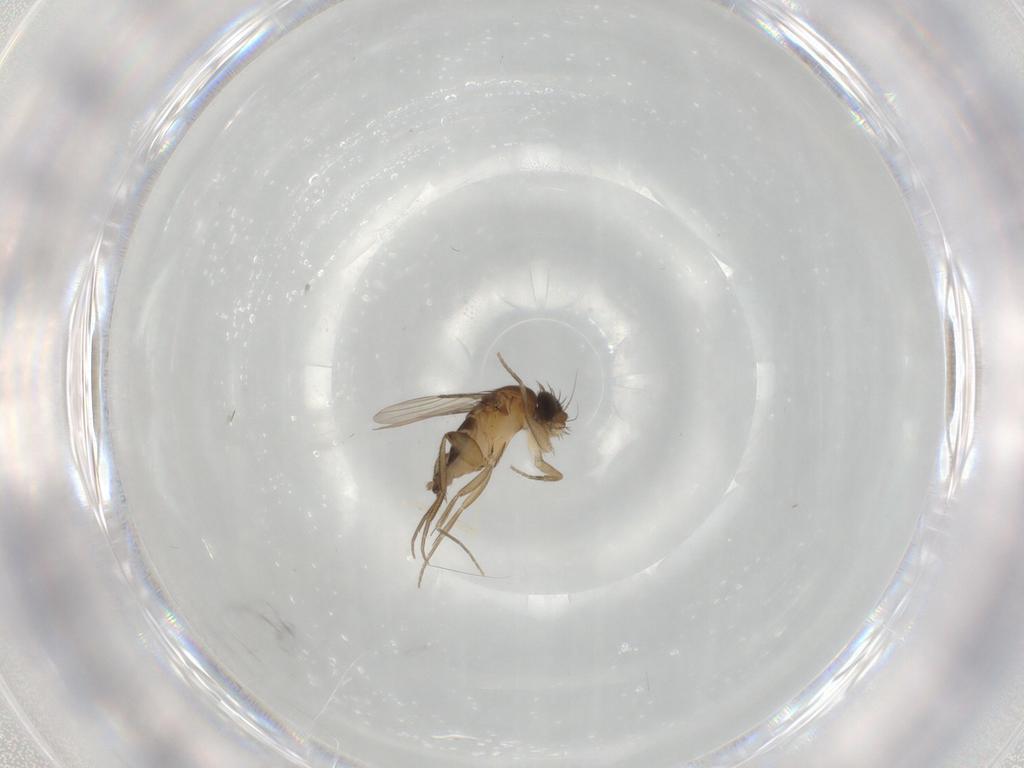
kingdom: Animalia
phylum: Arthropoda
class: Insecta
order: Diptera
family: Phoridae
